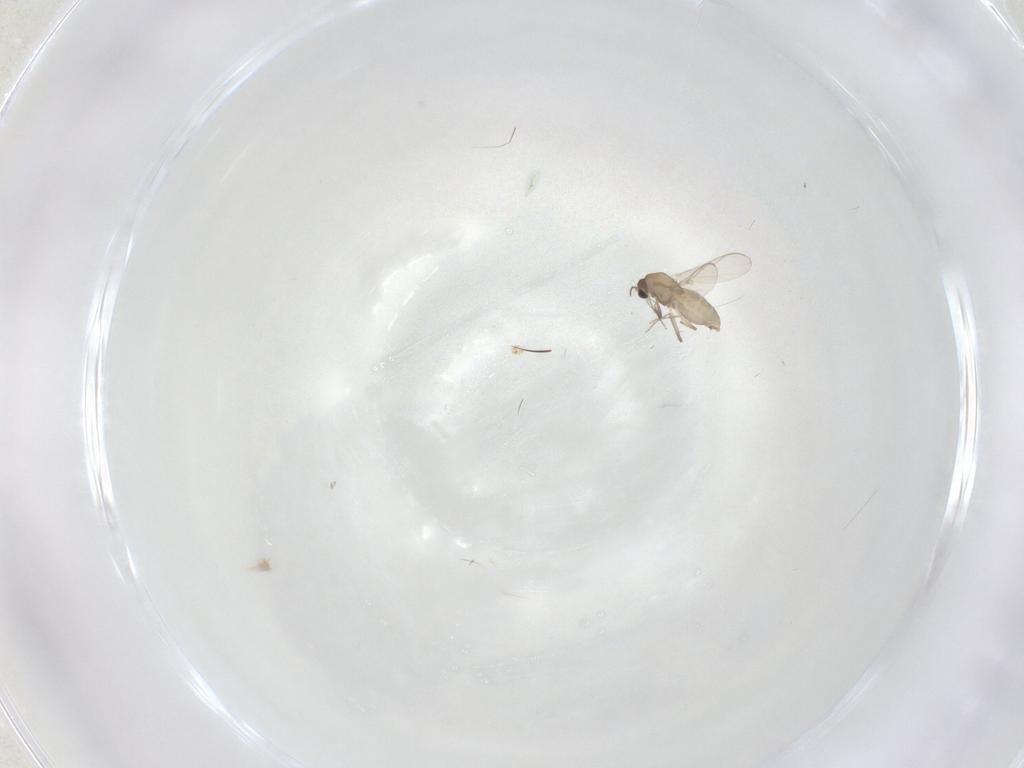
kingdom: Animalia
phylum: Arthropoda
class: Insecta
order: Diptera
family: Chironomidae
